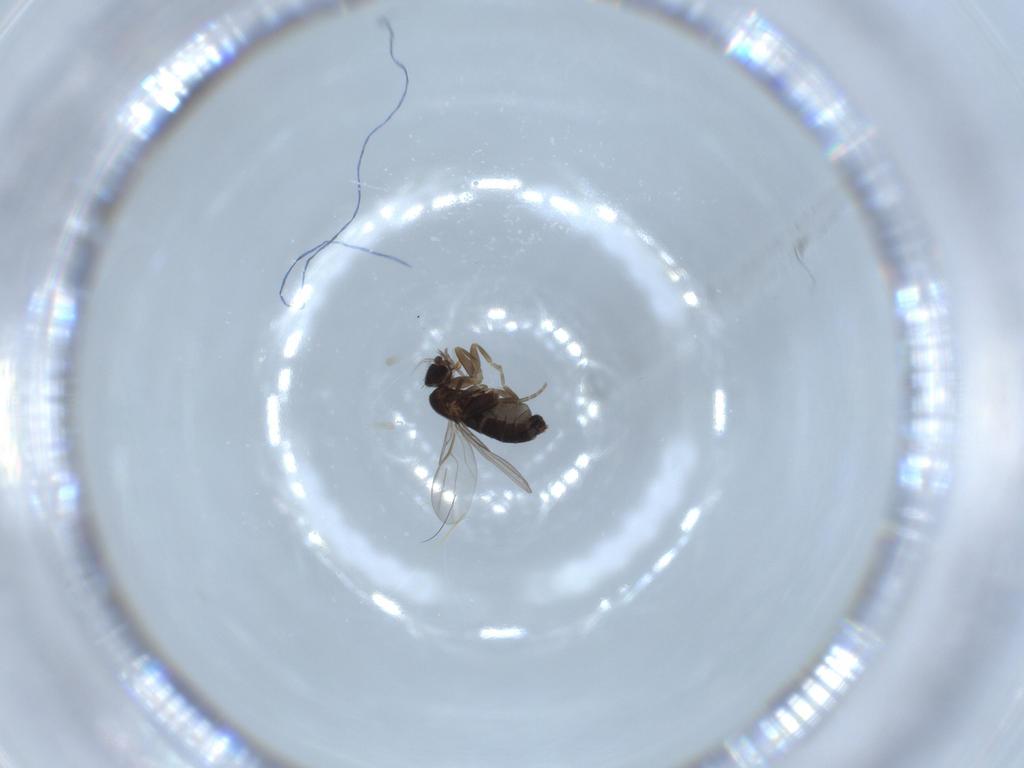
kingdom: Animalia
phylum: Arthropoda
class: Insecta
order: Diptera
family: Phoridae
